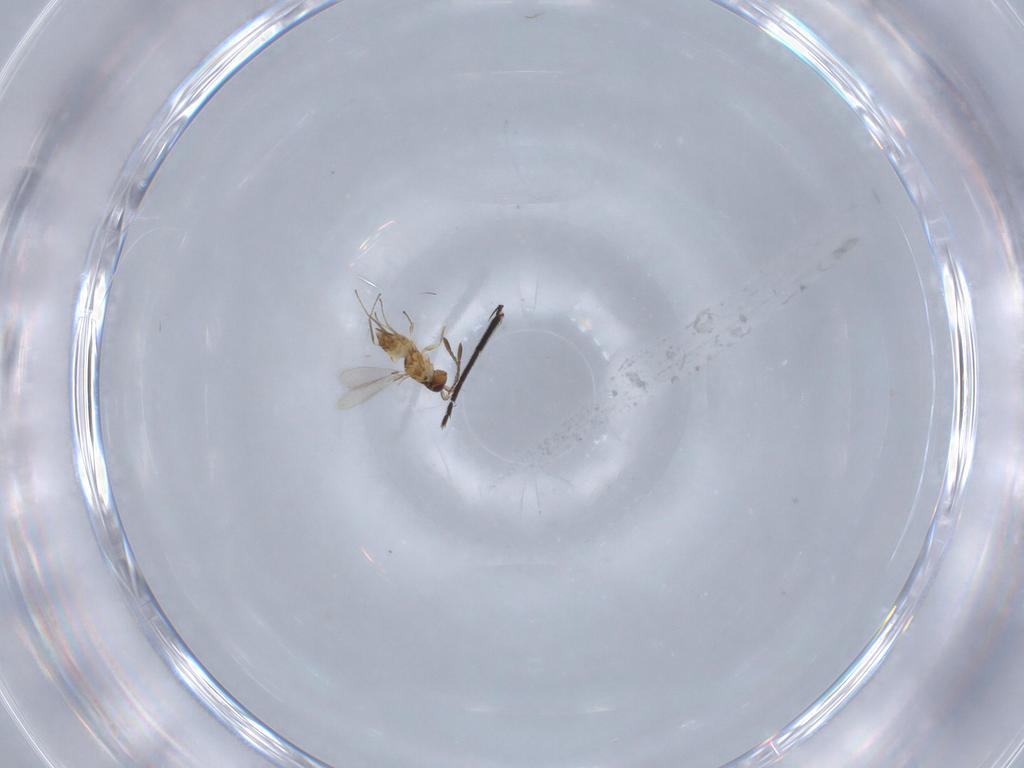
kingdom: Animalia
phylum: Arthropoda
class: Insecta
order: Hymenoptera
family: Mymaridae
